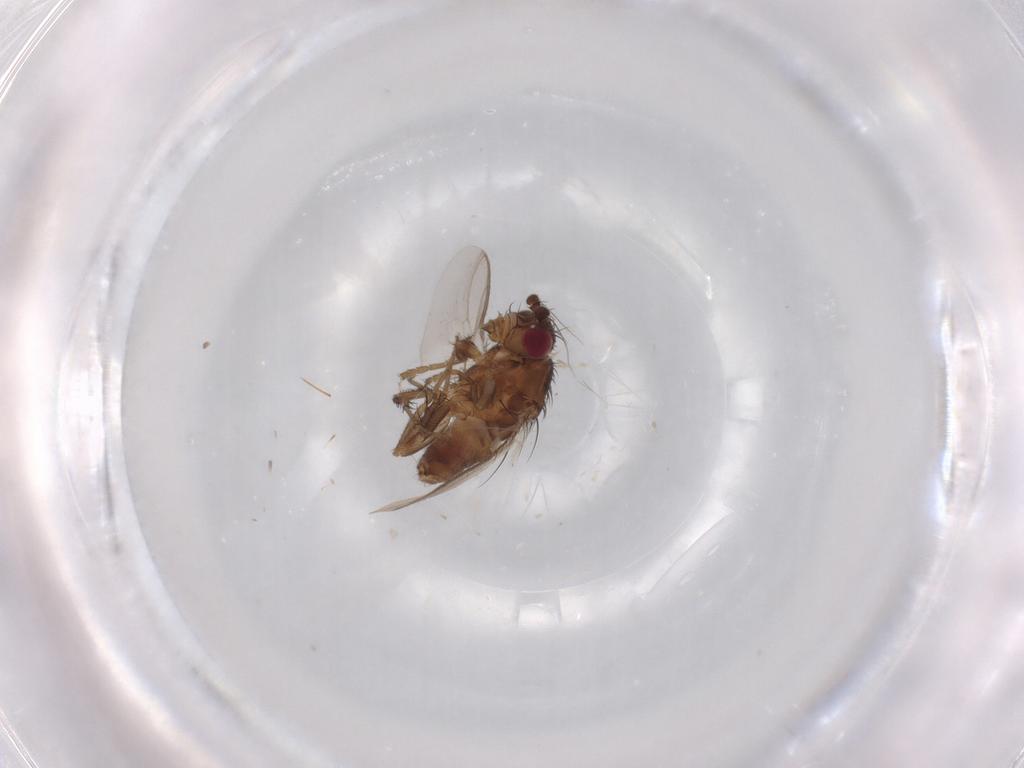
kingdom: Animalia
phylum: Arthropoda
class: Insecta
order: Diptera
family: Sphaeroceridae
